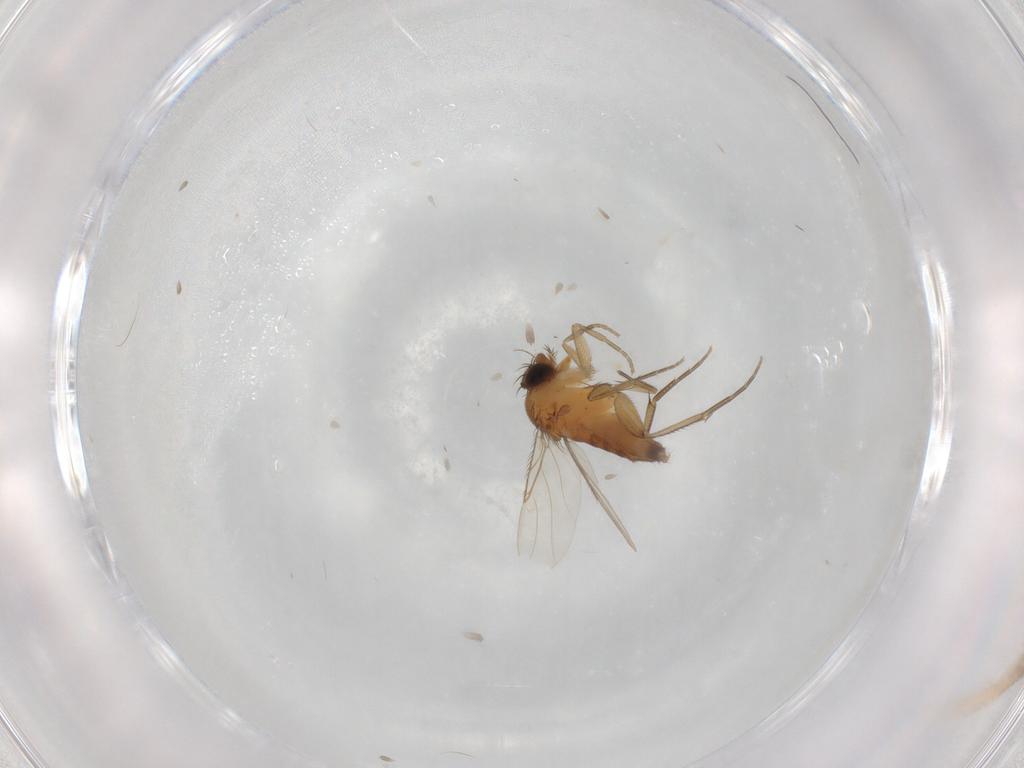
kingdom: Animalia
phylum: Arthropoda
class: Insecta
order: Diptera
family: Phoridae
